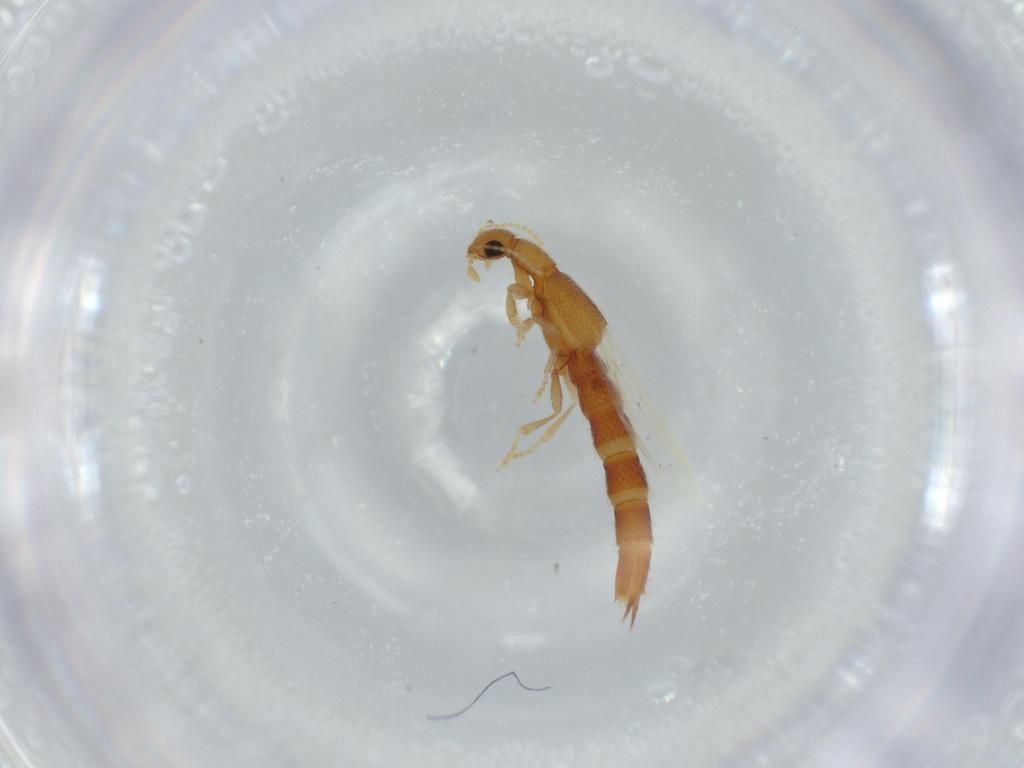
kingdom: Animalia
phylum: Arthropoda
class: Insecta
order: Coleoptera
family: Staphylinidae
